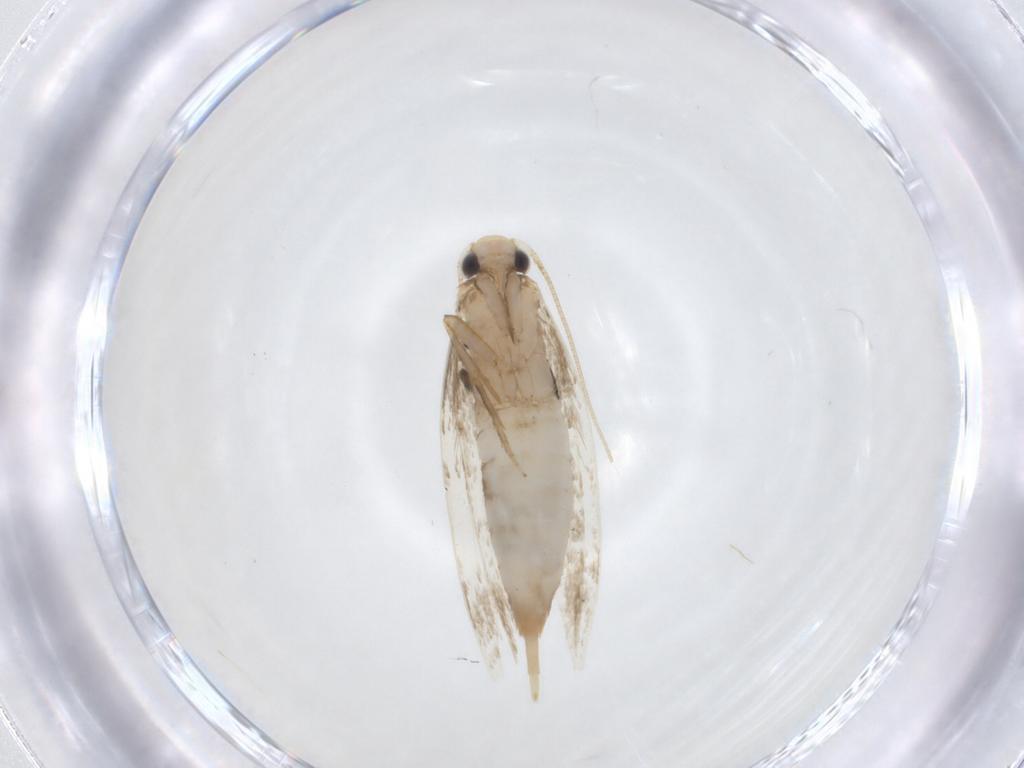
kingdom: Animalia
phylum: Arthropoda
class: Insecta
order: Lepidoptera
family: Tineidae
